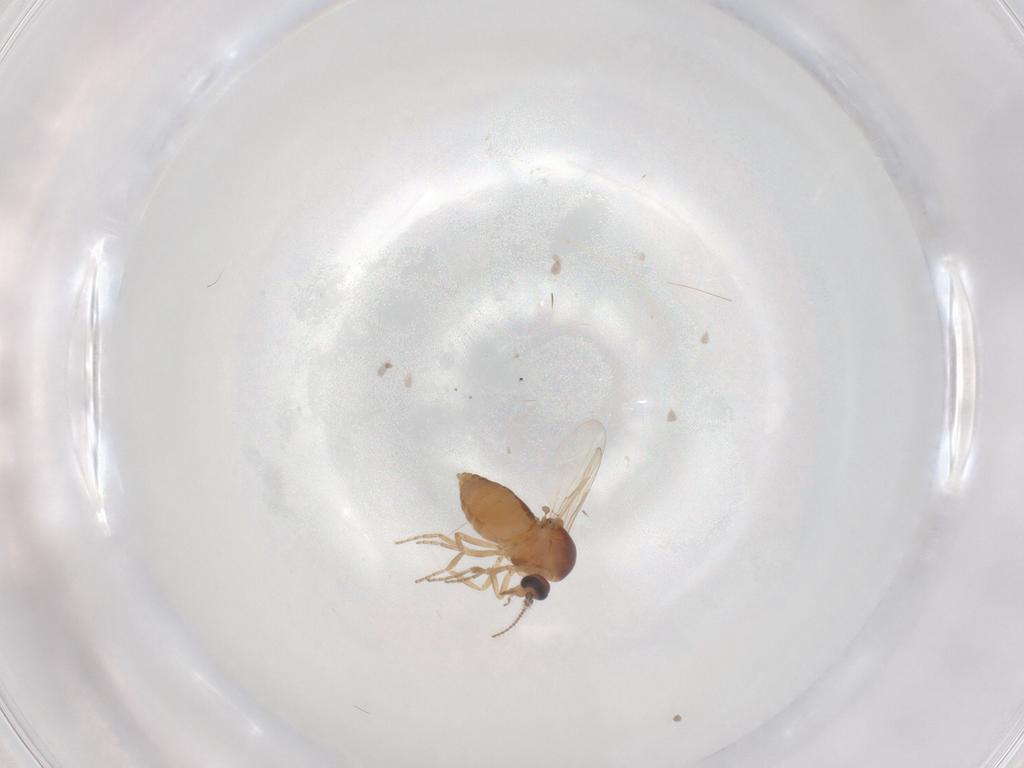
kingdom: Animalia
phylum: Arthropoda
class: Insecta
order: Diptera
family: Ceratopogonidae
